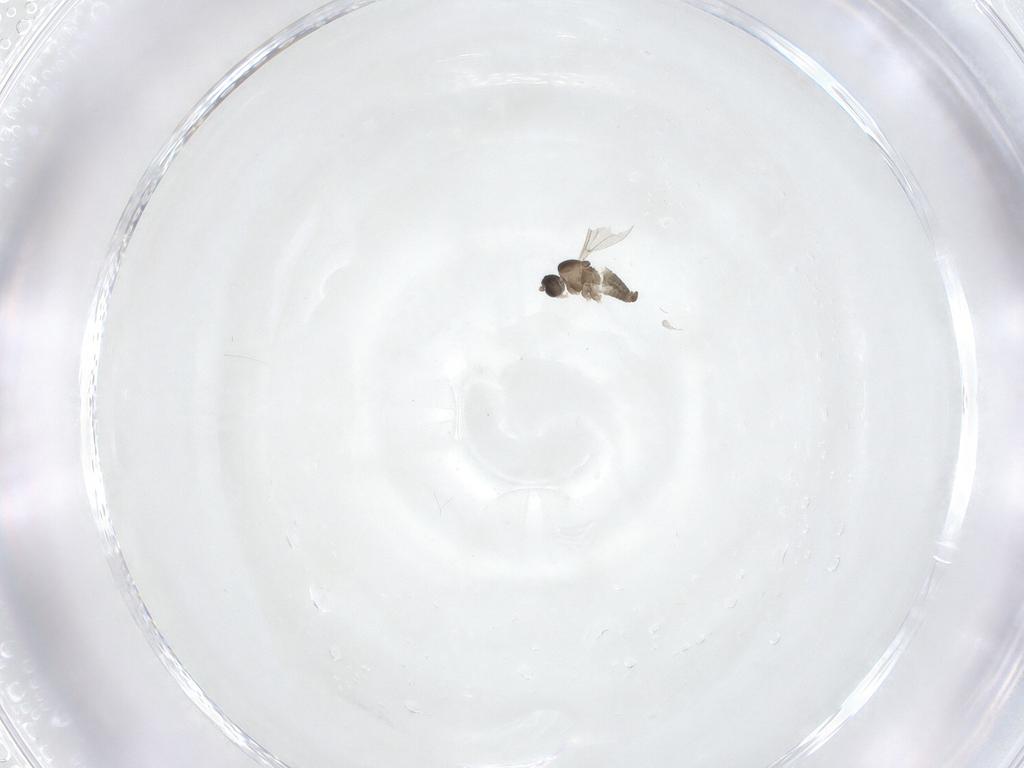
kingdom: Animalia
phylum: Arthropoda
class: Insecta
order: Diptera
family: Cecidomyiidae
